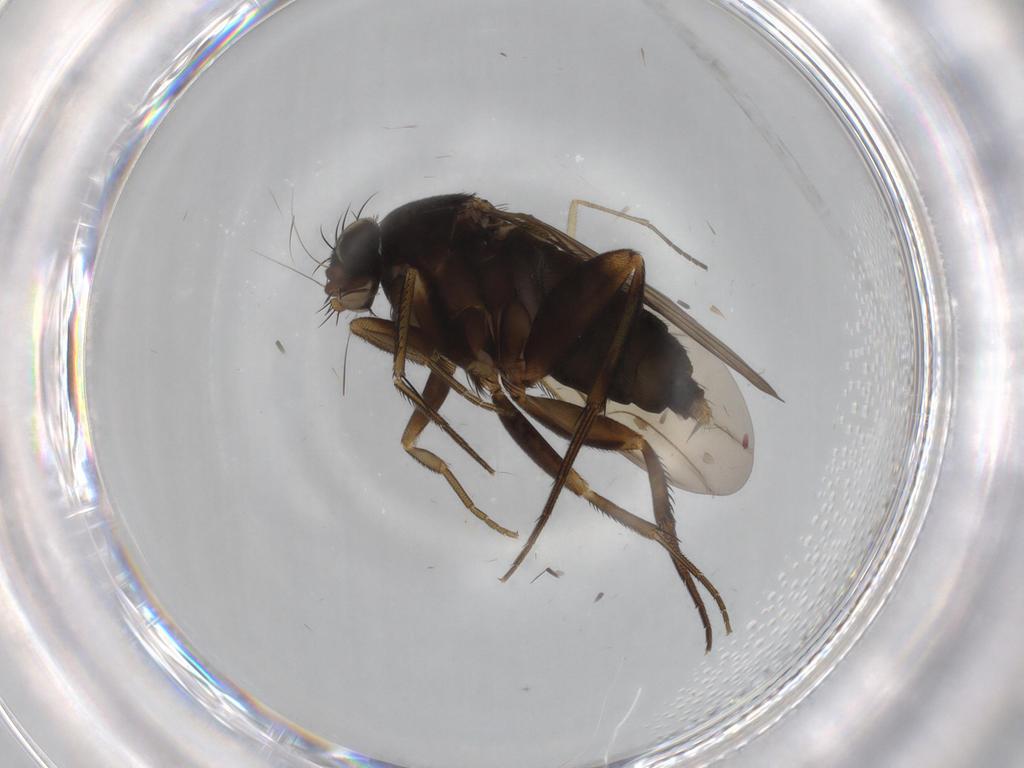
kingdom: Animalia
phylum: Arthropoda
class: Insecta
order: Diptera
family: Phoridae
